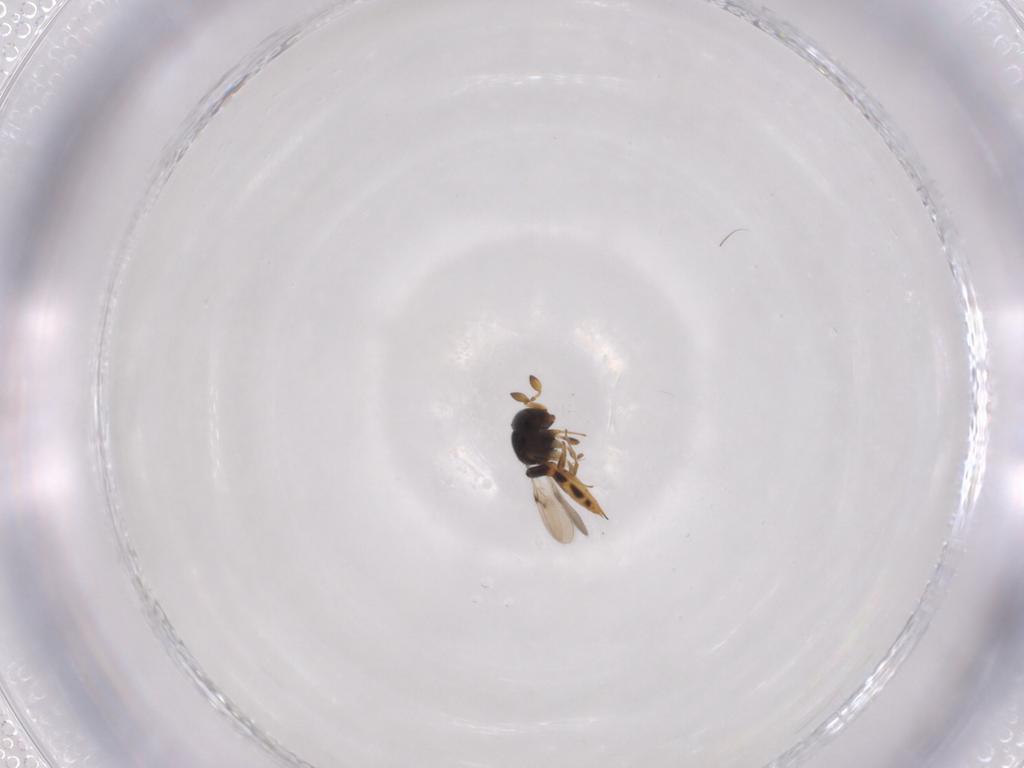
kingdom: Animalia
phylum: Arthropoda
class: Insecta
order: Hymenoptera
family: Scelionidae
